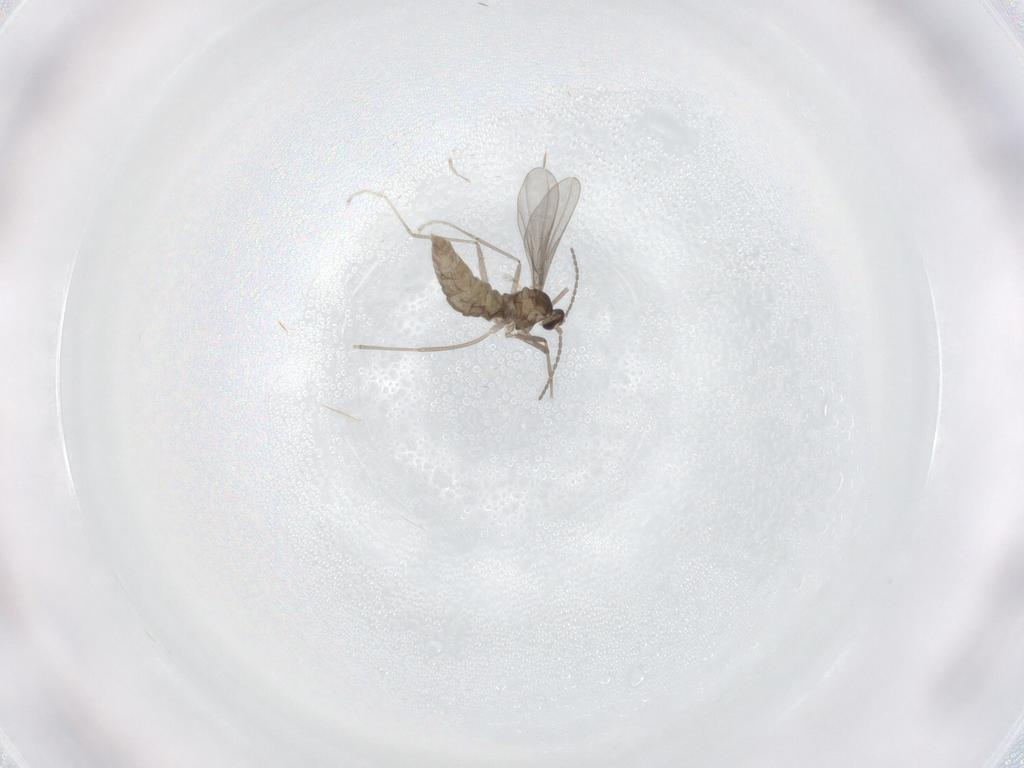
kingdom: Animalia
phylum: Arthropoda
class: Insecta
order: Diptera
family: Cecidomyiidae
